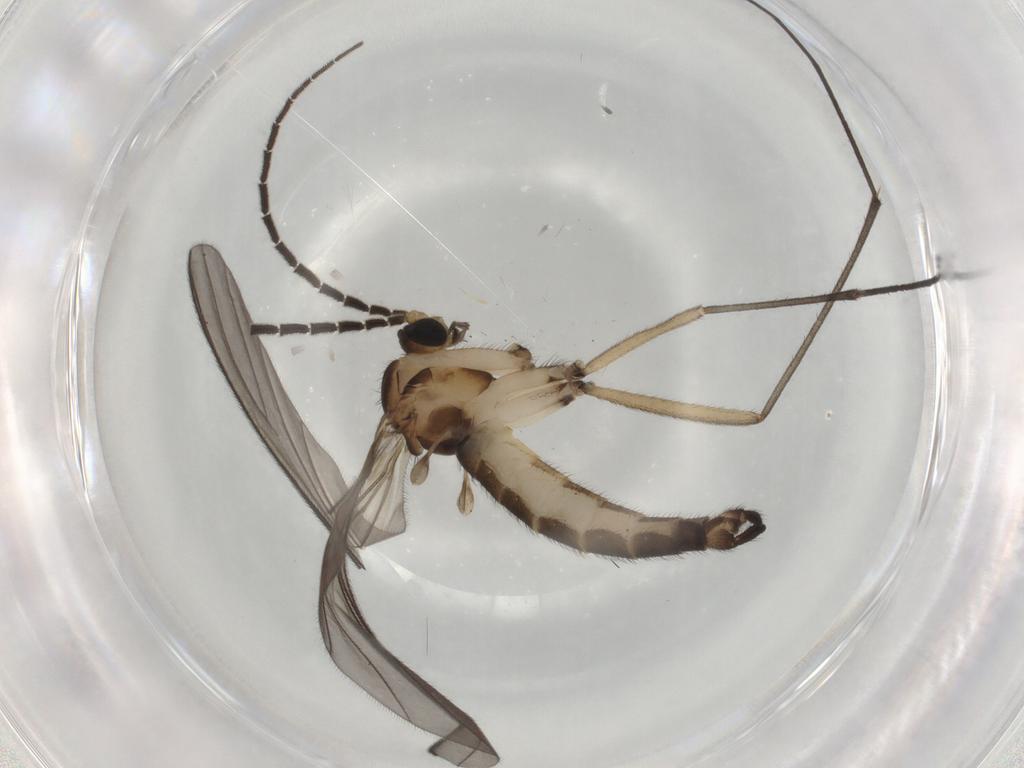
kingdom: Animalia
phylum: Arthropoda
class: Insecta
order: Diptera
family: Sciaridae
